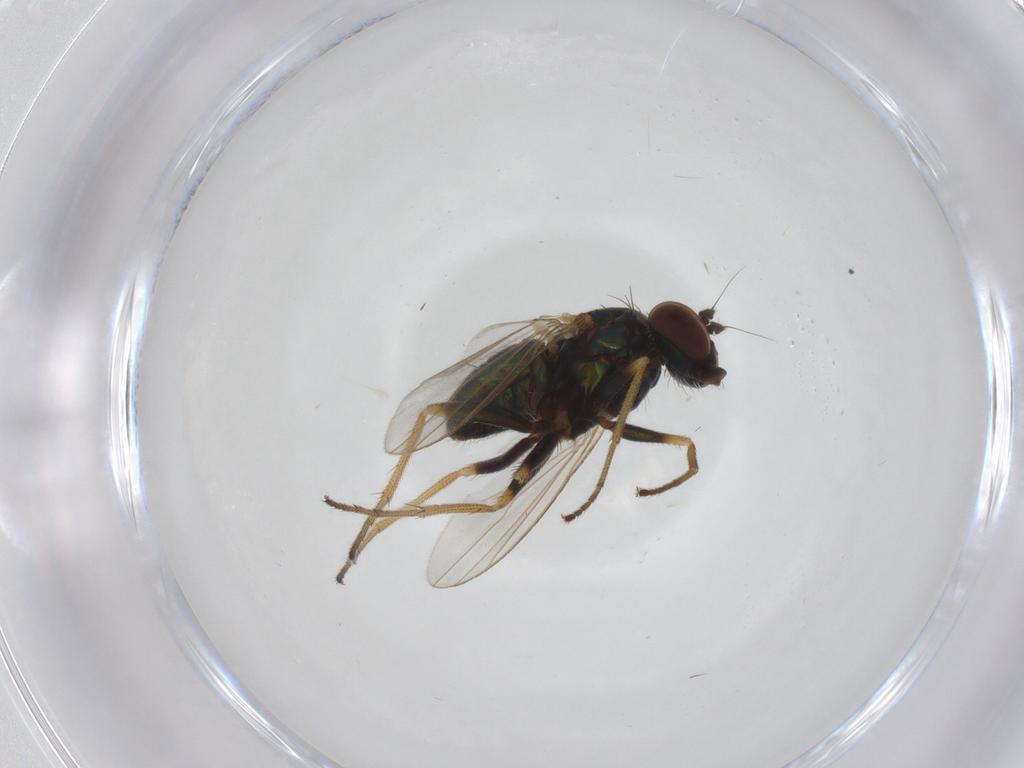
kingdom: Animalia
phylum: Arthropoda
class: Insecta
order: Diptera
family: Dolichopodidae
